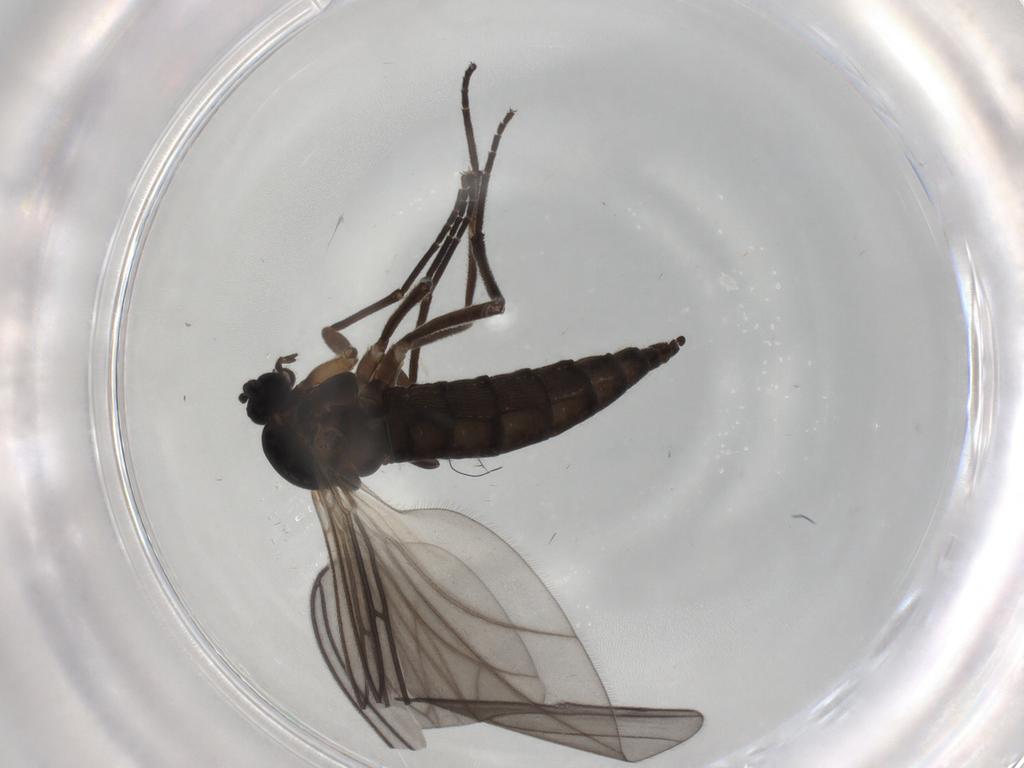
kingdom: Animalia
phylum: Arthropoda
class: Insecta
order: Diptera
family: Sciaridae
